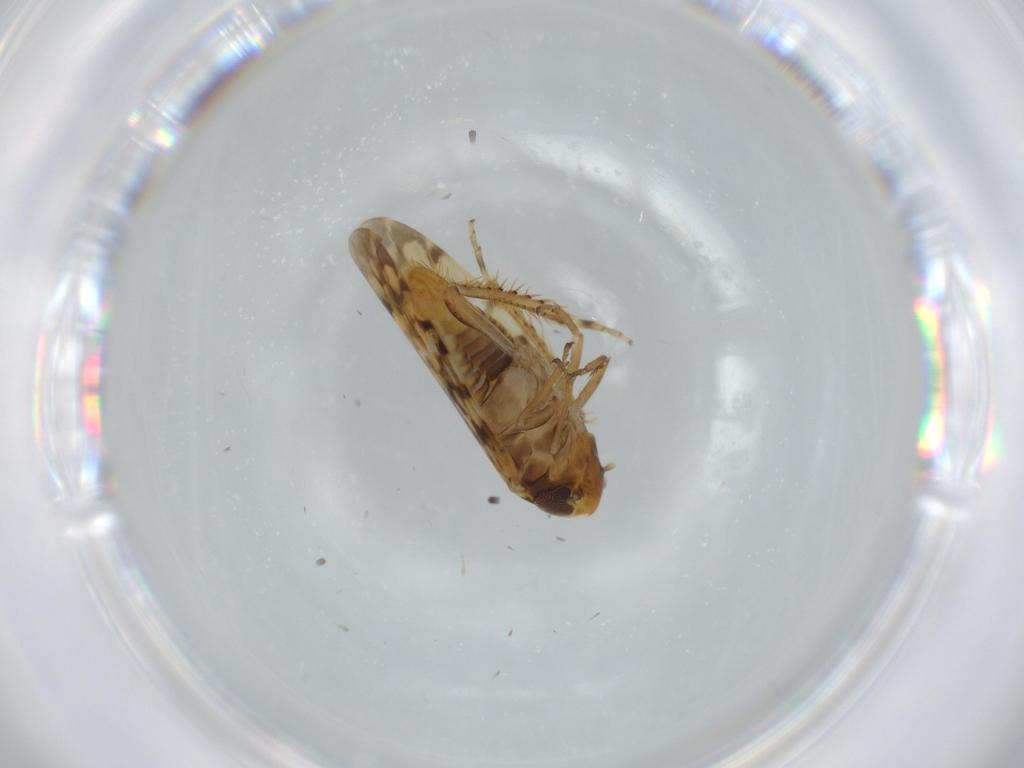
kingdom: Animalia
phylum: Arthropoda
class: Insecta
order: Hemiptera
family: Cicadellidae
